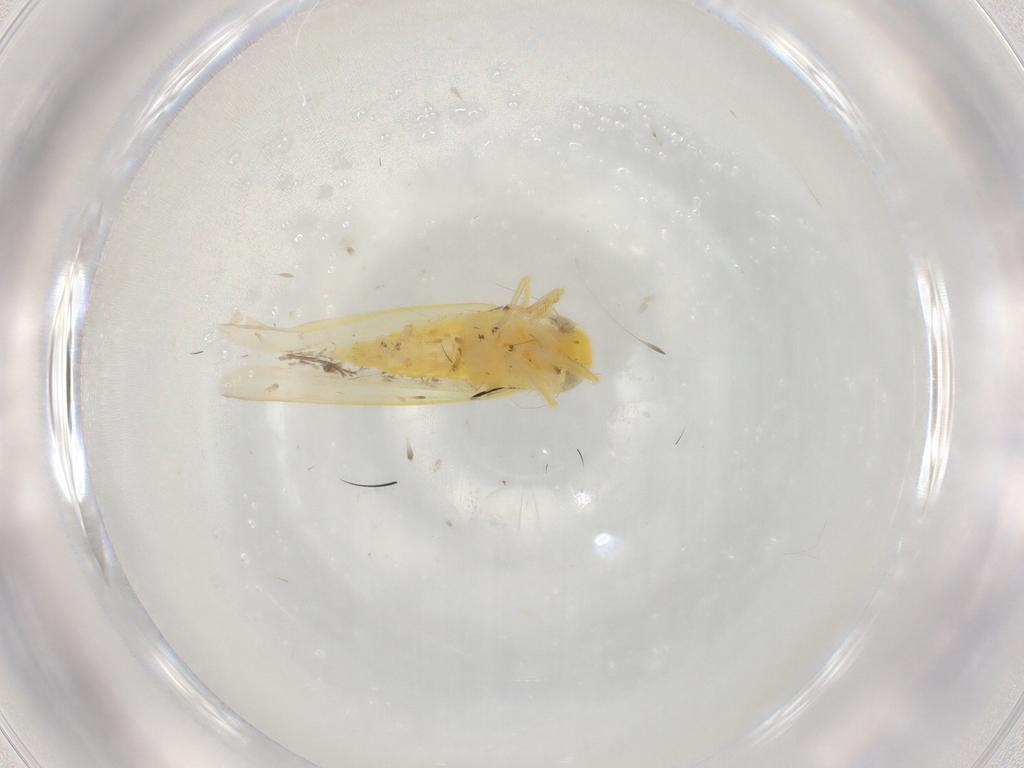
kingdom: Animalia
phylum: Arthropoda
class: Insecta
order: Hemiptera
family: Cicadellidae
